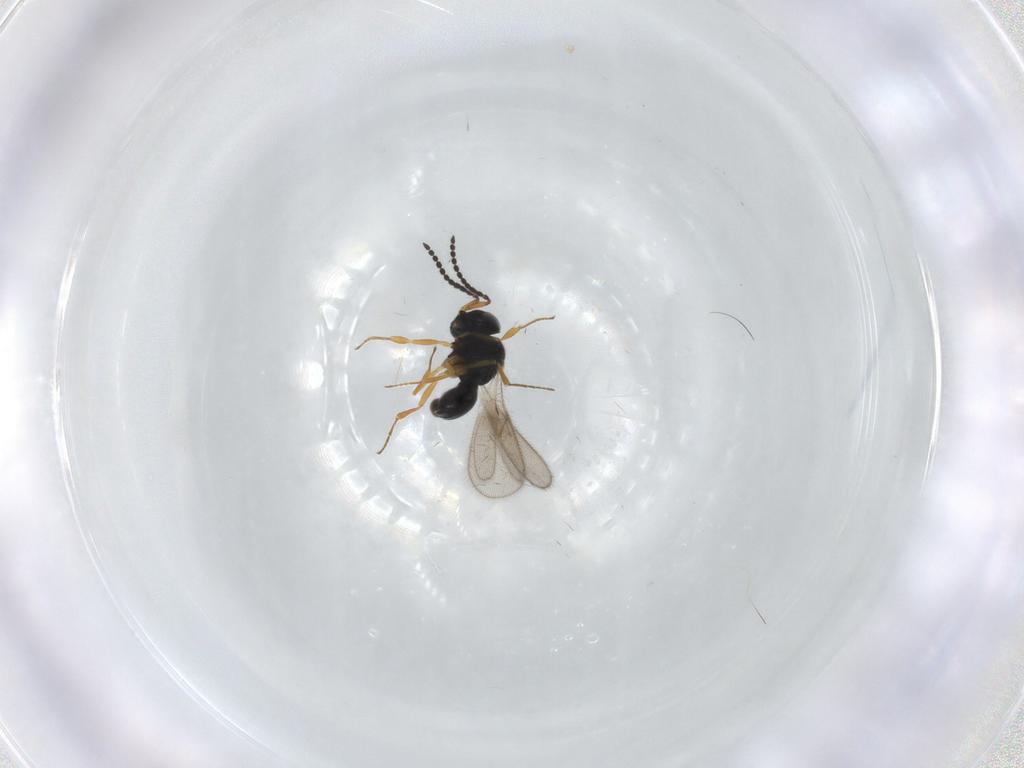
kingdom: Animalia
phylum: Arthropoda
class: Insecta
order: Hymenoptera
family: Scelionidae
